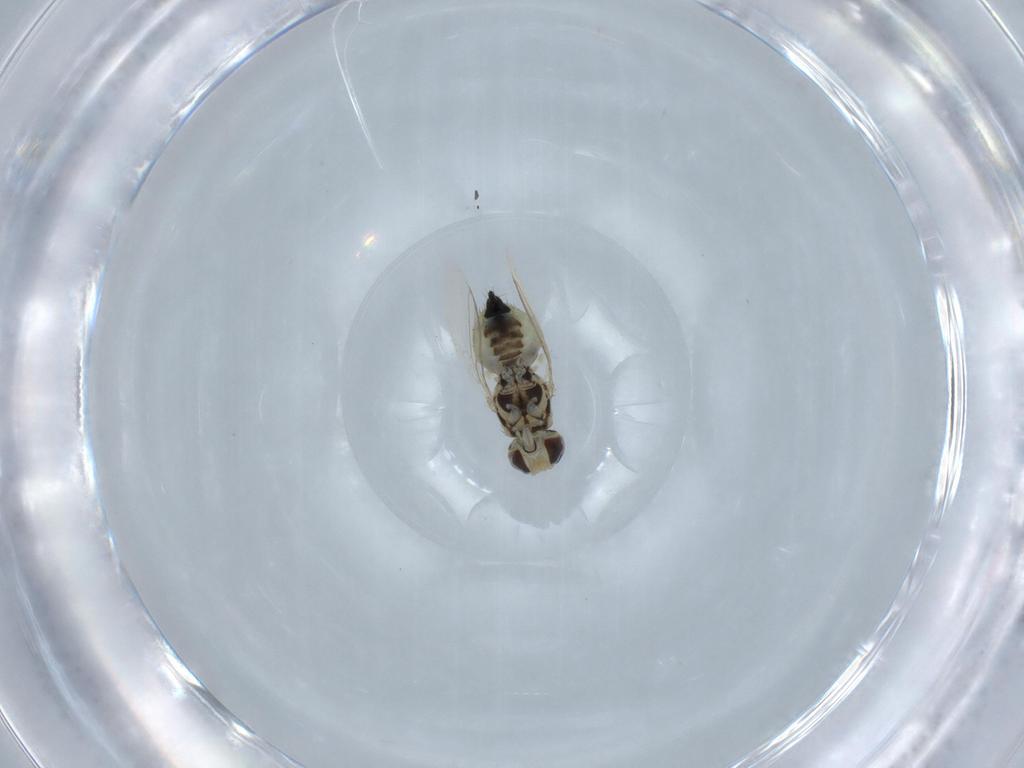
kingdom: Animalia
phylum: Arthropoda
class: Insecta
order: Diptera
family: Agromyzidae
